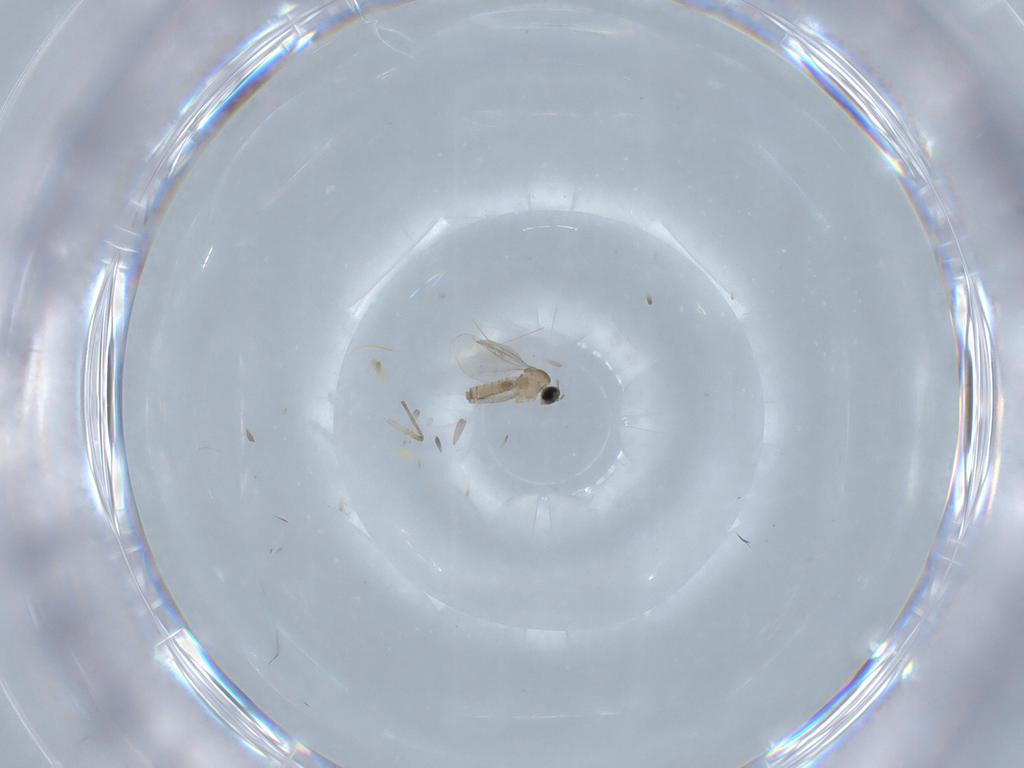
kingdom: Animalia
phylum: Arthropoda
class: Insecta
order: Diptera
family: Cecidomyiidae
